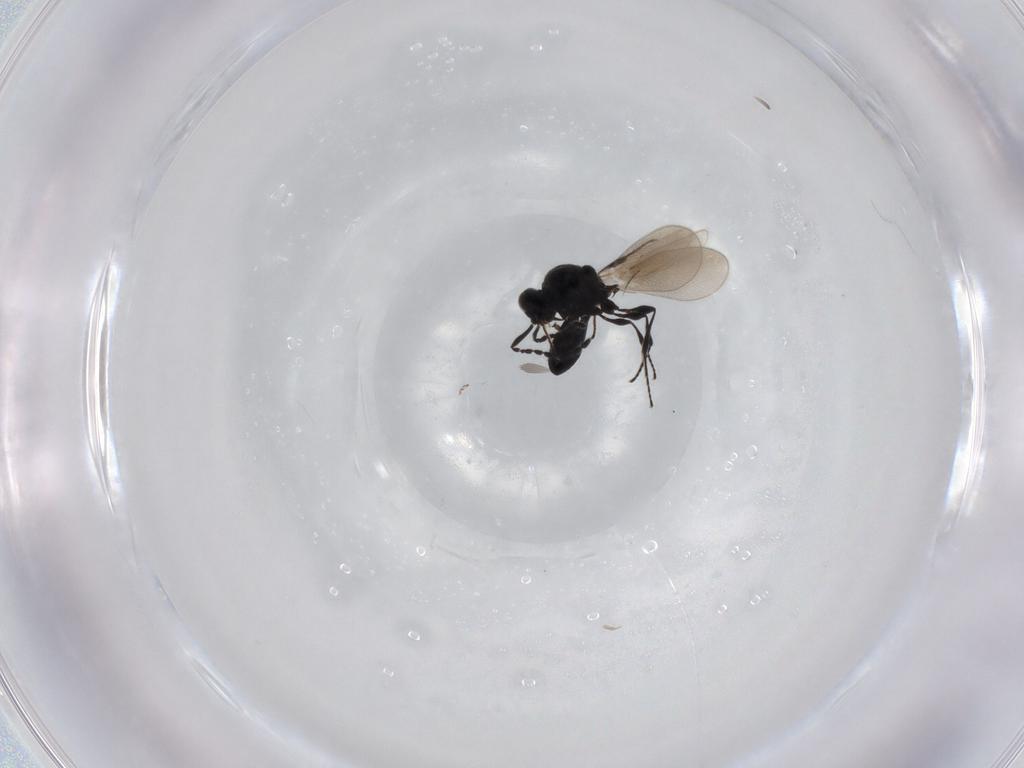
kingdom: Animalia
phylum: Arthropoda
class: Insecta
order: Hymenoptera
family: Platygastridae
